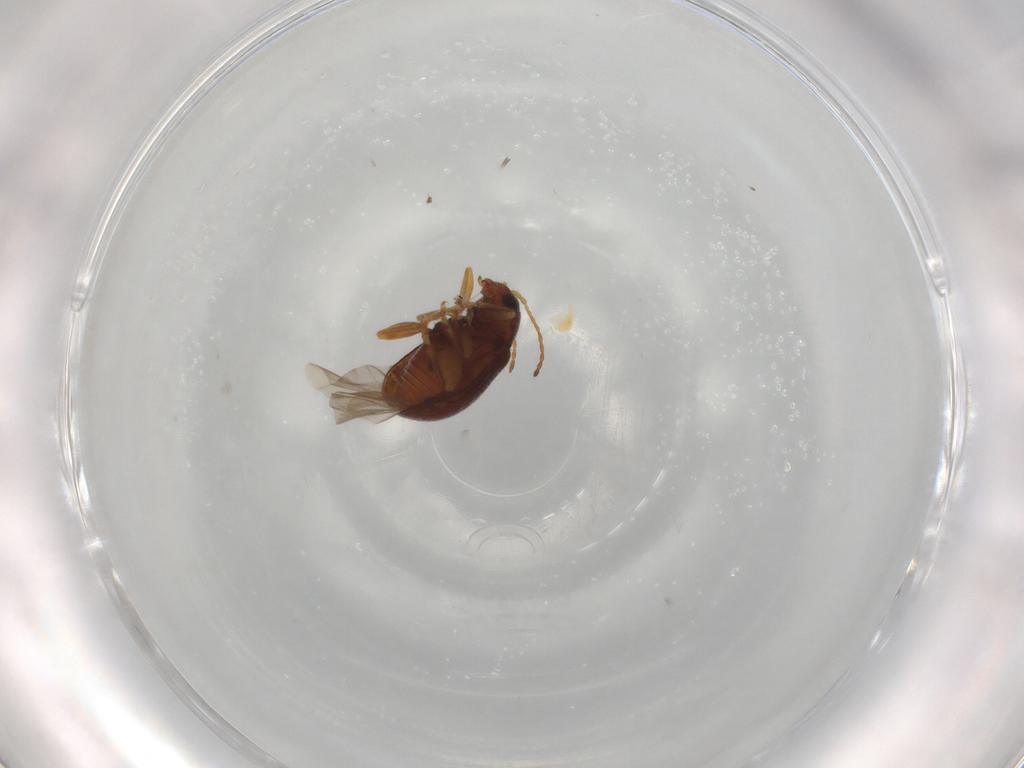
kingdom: Animalia
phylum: Arthropoda
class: Insecta
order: Coleoptera
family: Chrysomelidae
